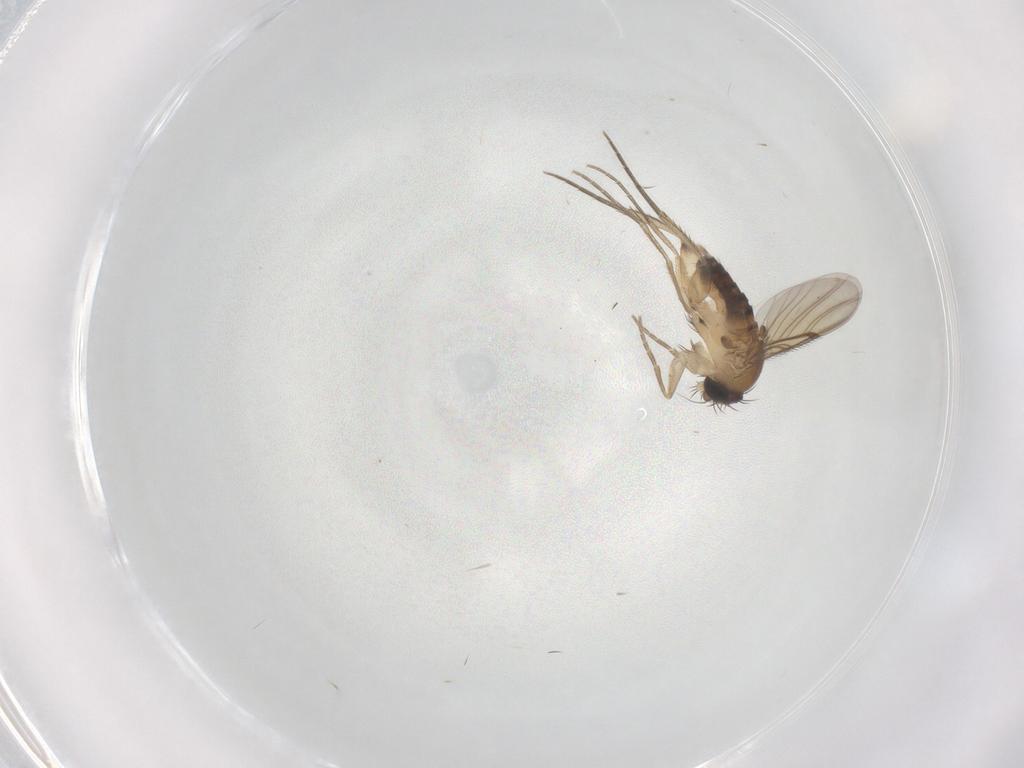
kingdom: Animalia
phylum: Arthropoda
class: Insecta
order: Diptera
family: Phoridae
